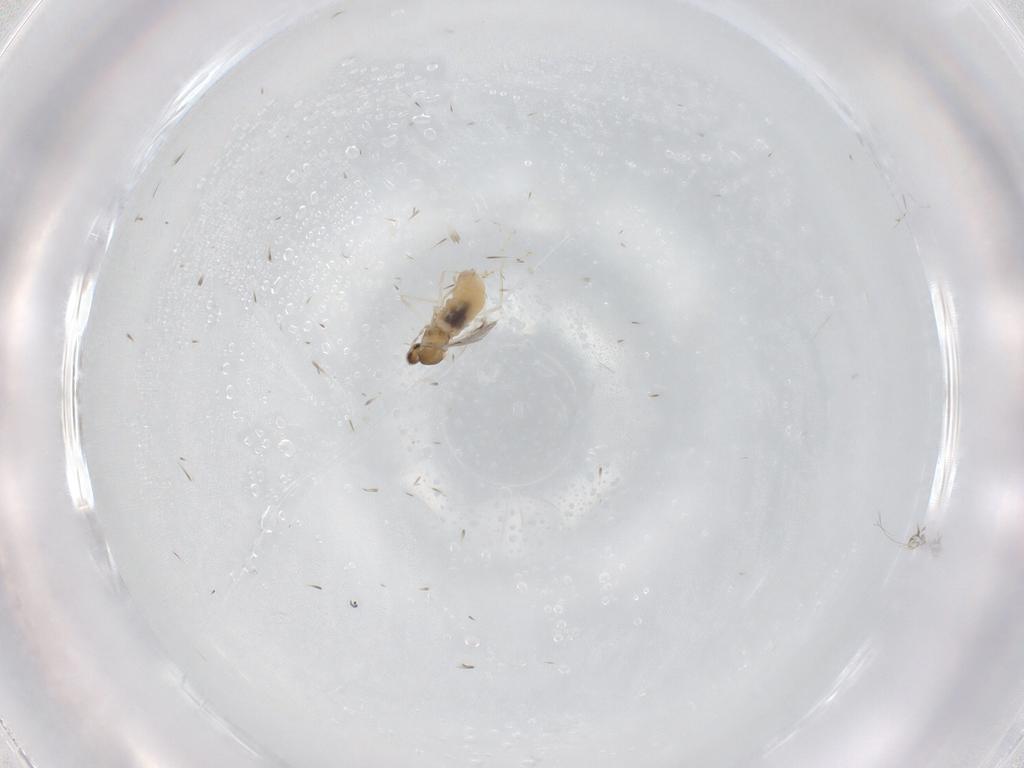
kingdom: Animalia
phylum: Arthropoda
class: Insecta
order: Diptera
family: Cecidomyiidae
